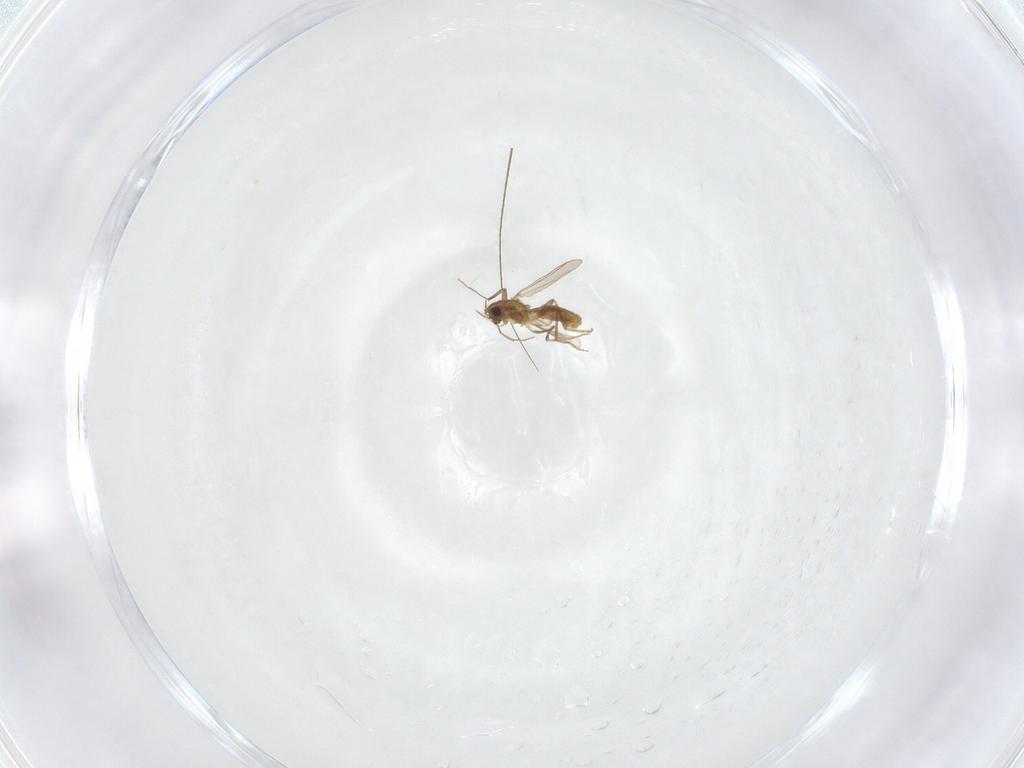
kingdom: Animalia
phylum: Arthropoda
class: Insecta
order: Diptera
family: Chironomidae
